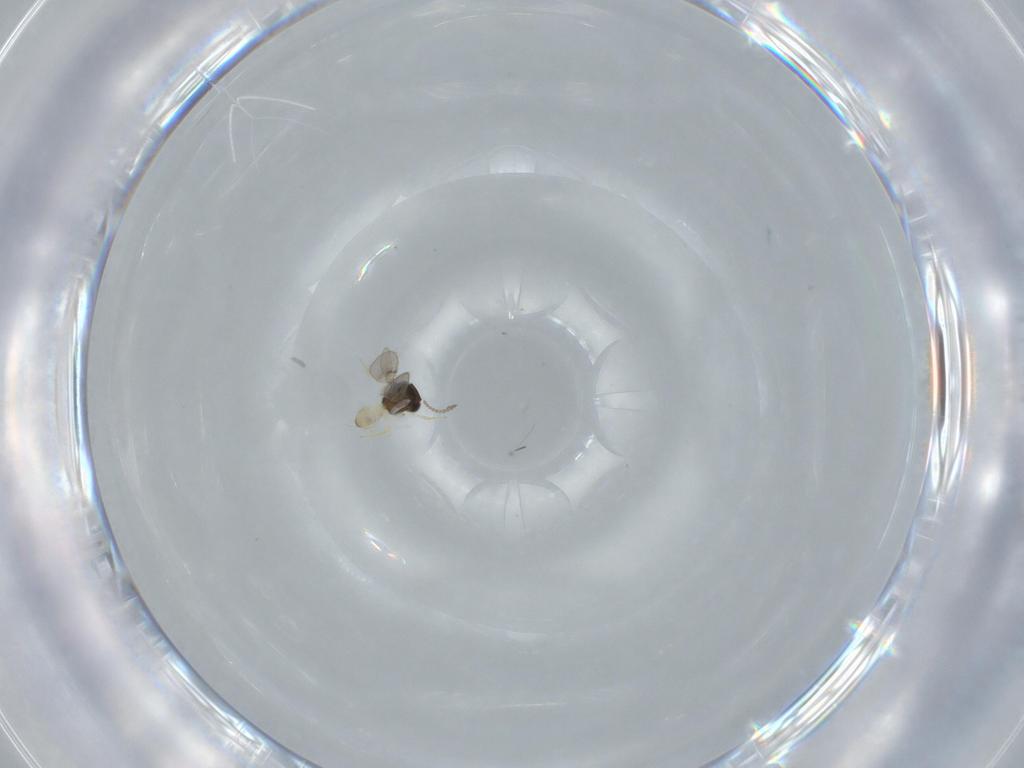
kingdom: Animalia
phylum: Arthropoda
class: Insecta
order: Hymenoptera
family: Scelionidae
